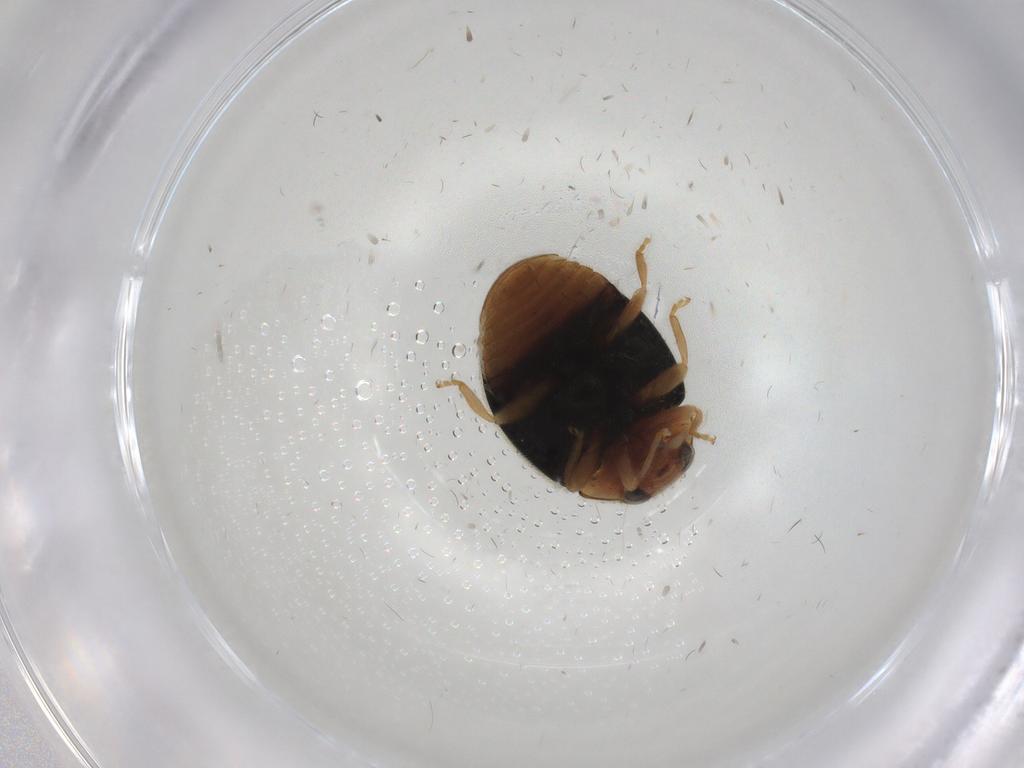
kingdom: Animalia
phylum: Arthropoda
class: Insecta
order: Coleoptera
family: Coccinellidae
